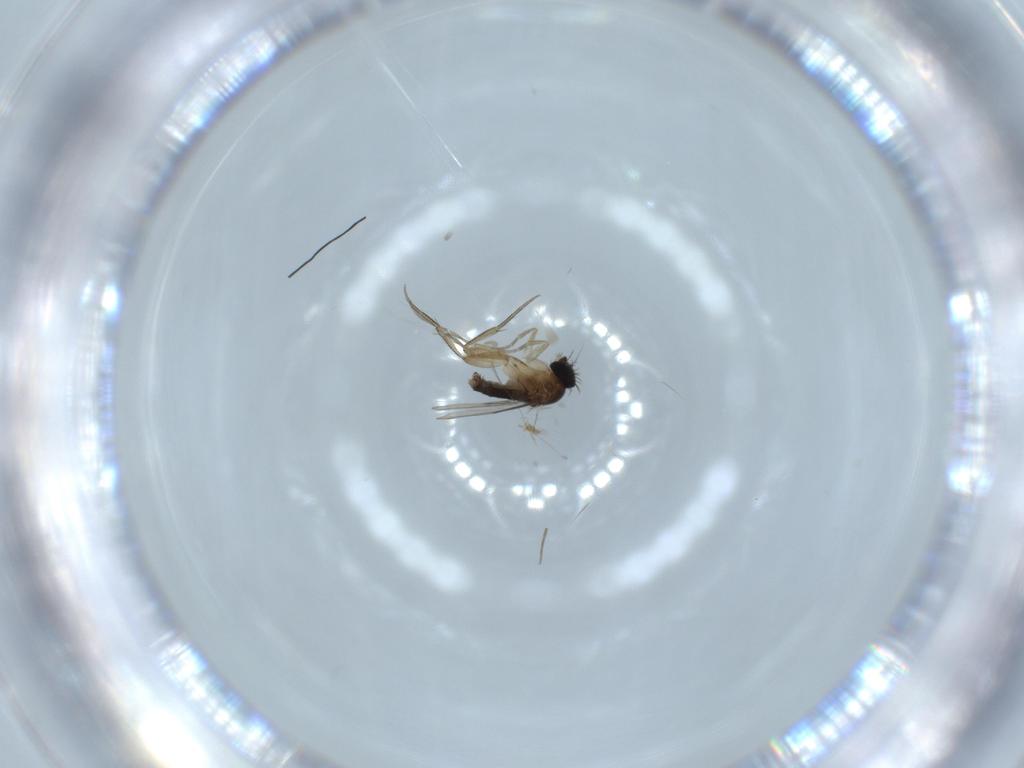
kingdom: Animalia
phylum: Arthropoda
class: Insecta
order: Diptera
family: Phoridae
